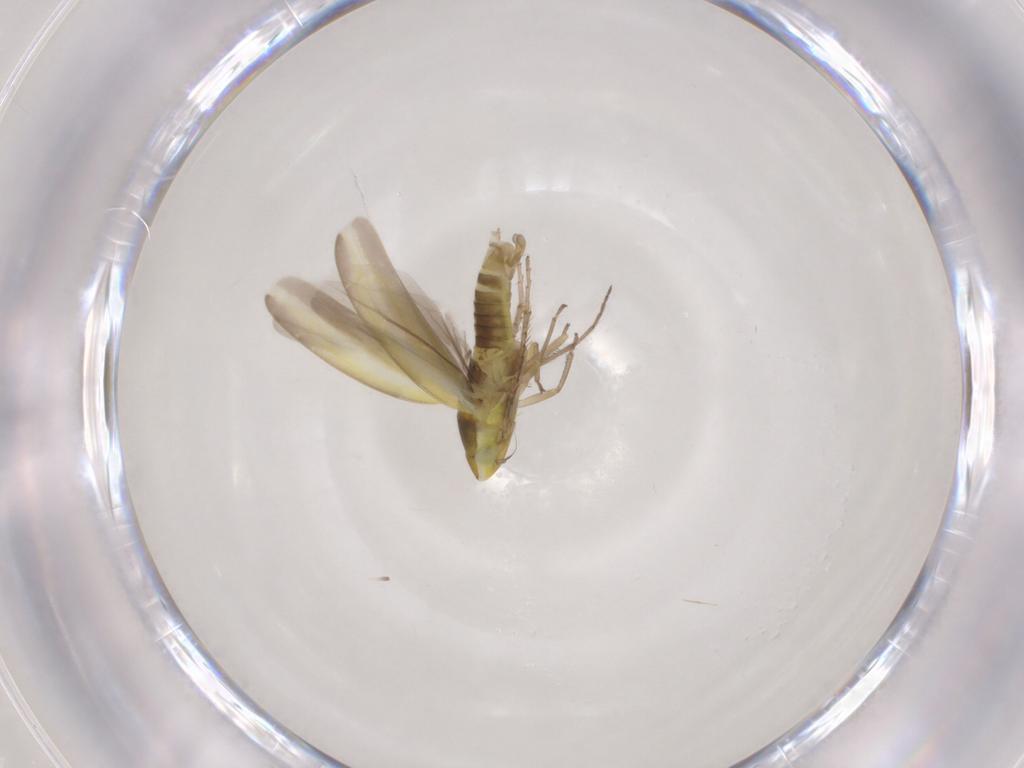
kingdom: Animalia
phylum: Arthropoda
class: Insecta
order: Hemiptera
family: Cicadellidae
